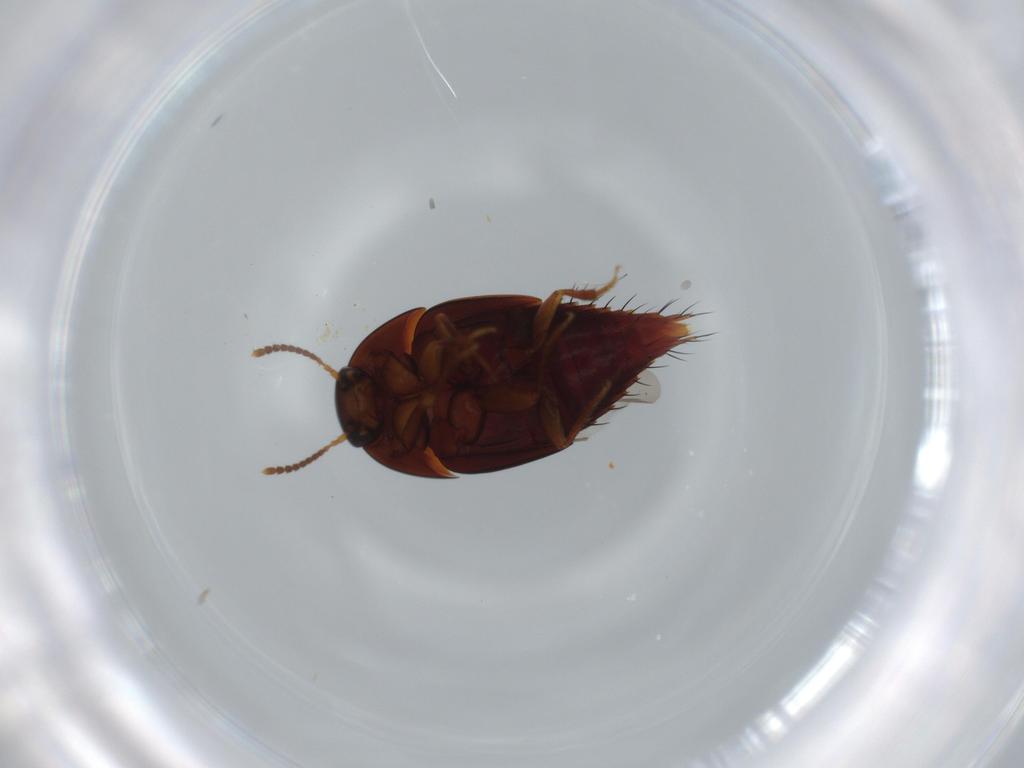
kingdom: Animalia
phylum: Arthropoda
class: Insecta
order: Coleoptera
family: Staphylinidae
